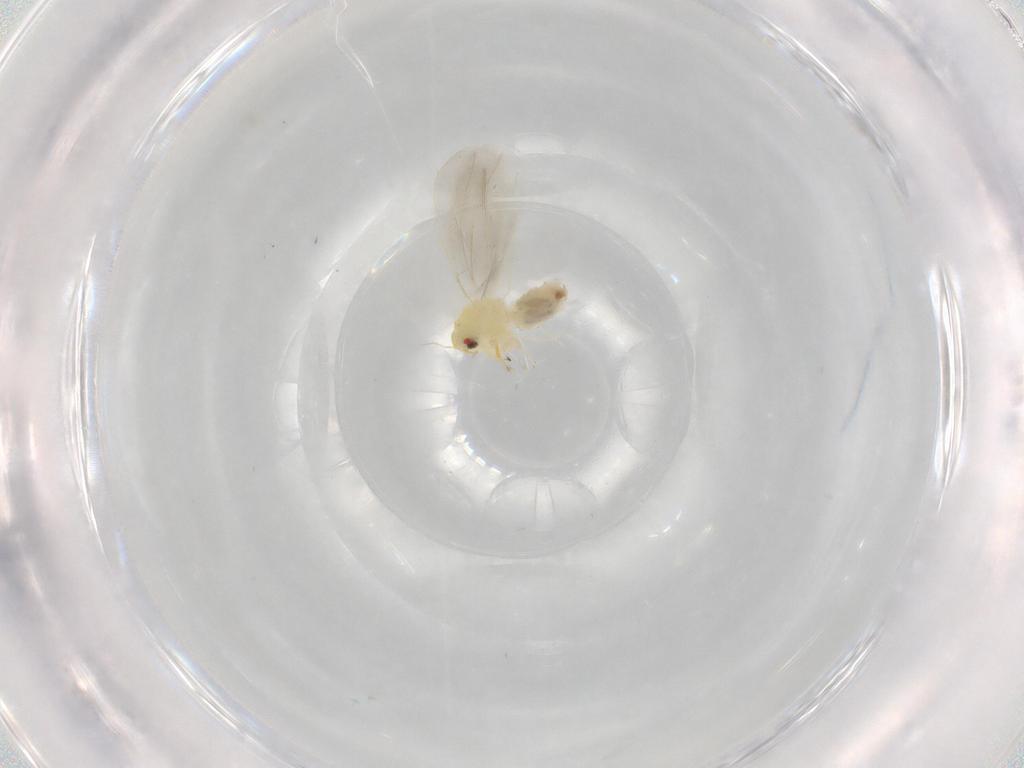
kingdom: Animalia
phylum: Arthropoda
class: Insecta
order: Hemiptera
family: Aleyrodidae
